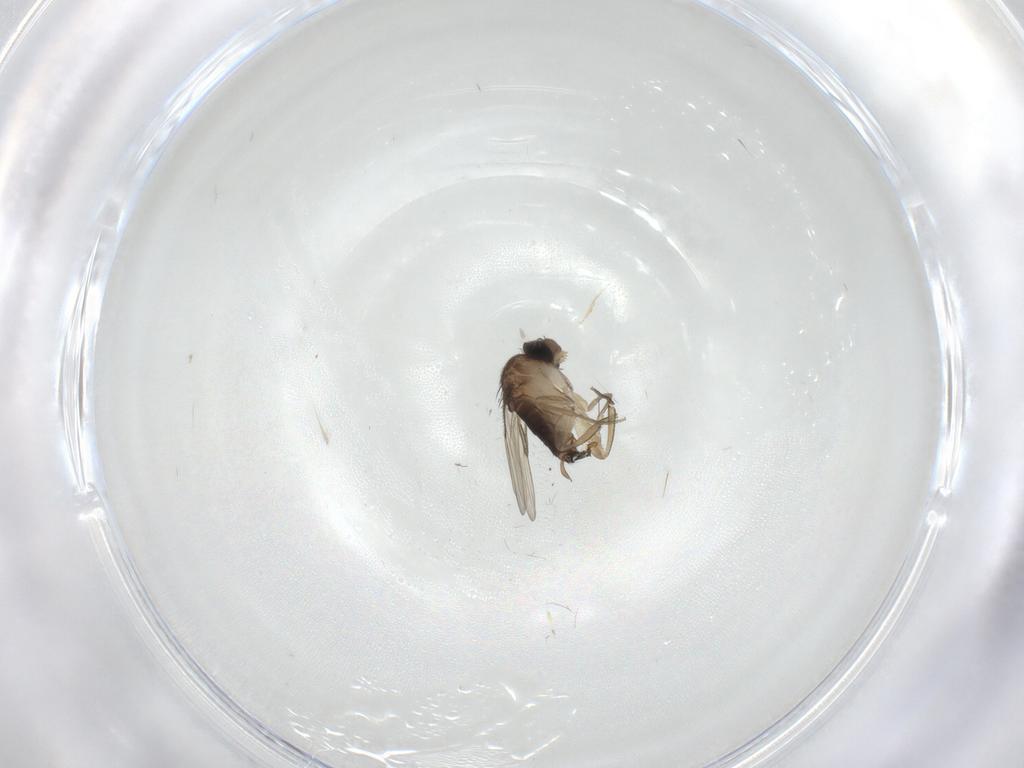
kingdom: Animalia
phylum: Arthropoda
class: Insecta
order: Diptera
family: Sciaridae
